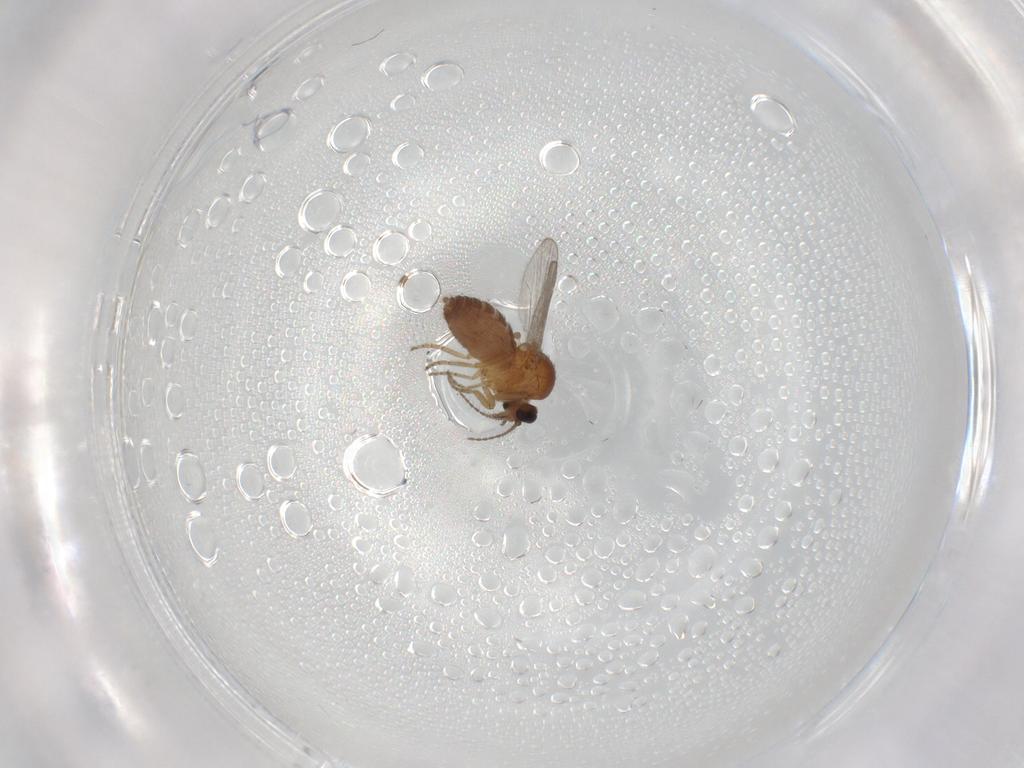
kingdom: Animalia
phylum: Arthropoda
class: Insecta
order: Diptera
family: Ceratopogonidae
